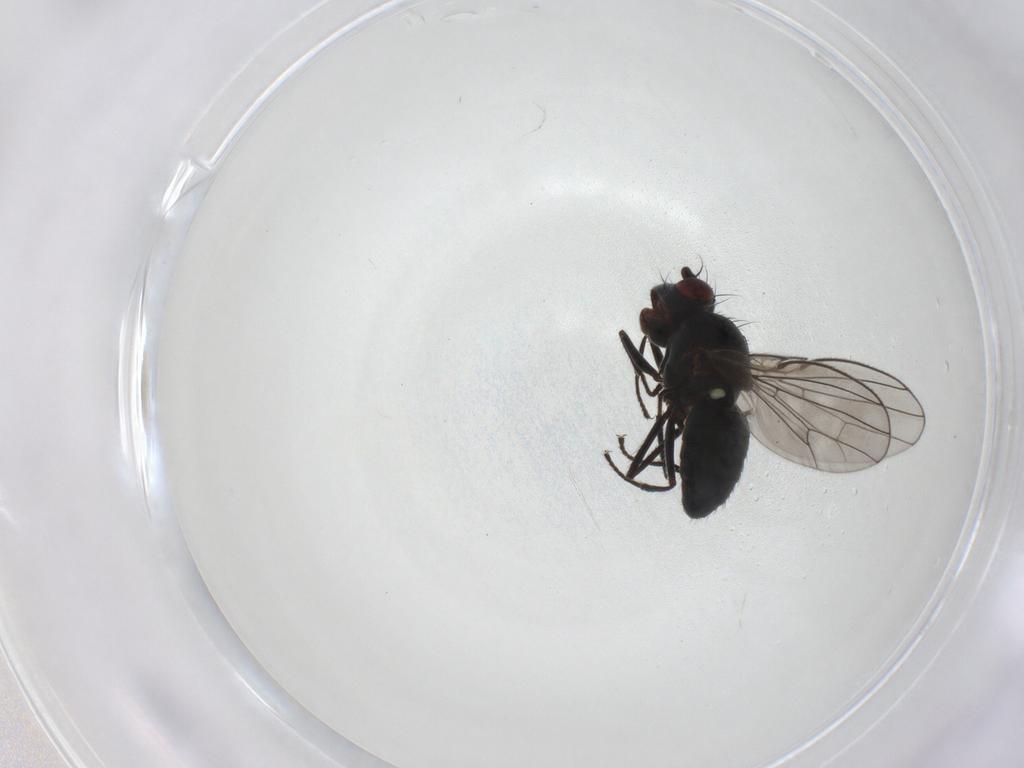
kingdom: Animalia
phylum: Arthropoda
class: Insecta
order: Diptera
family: Ephydridae
